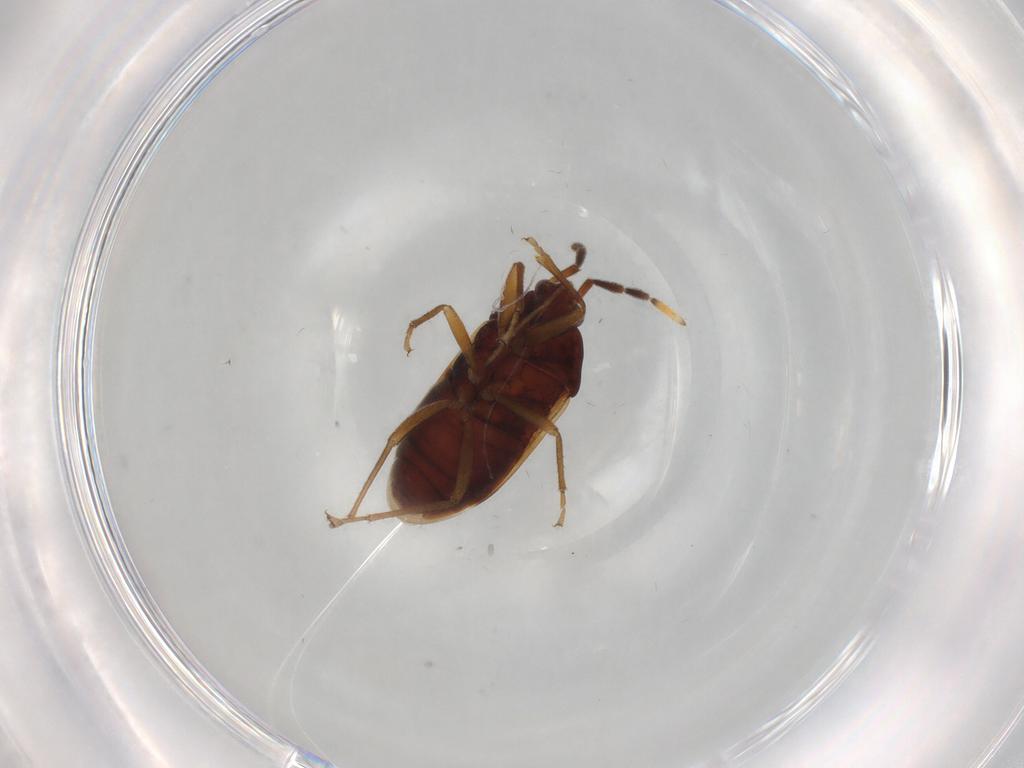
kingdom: Animalia
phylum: Arthropoda
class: Insecta
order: Hemiptera
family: Rhyparochromidae
